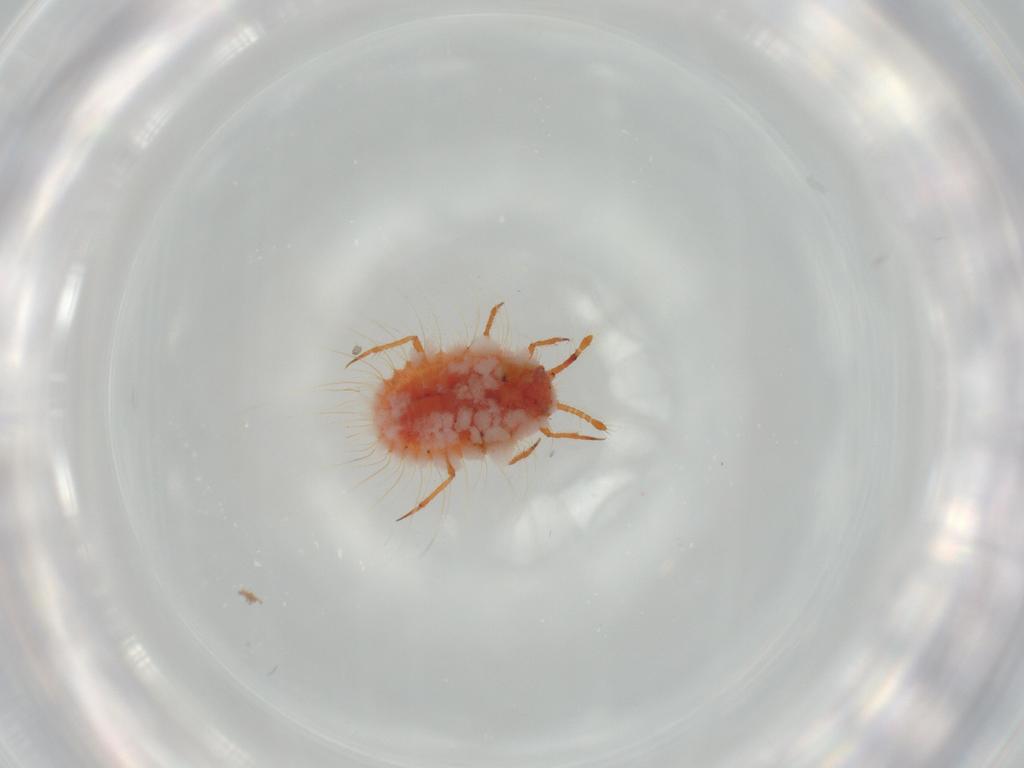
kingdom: Animalia
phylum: Arthropoda
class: Insecta
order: Hemiptera
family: Coccoidea_incertae_sedis
